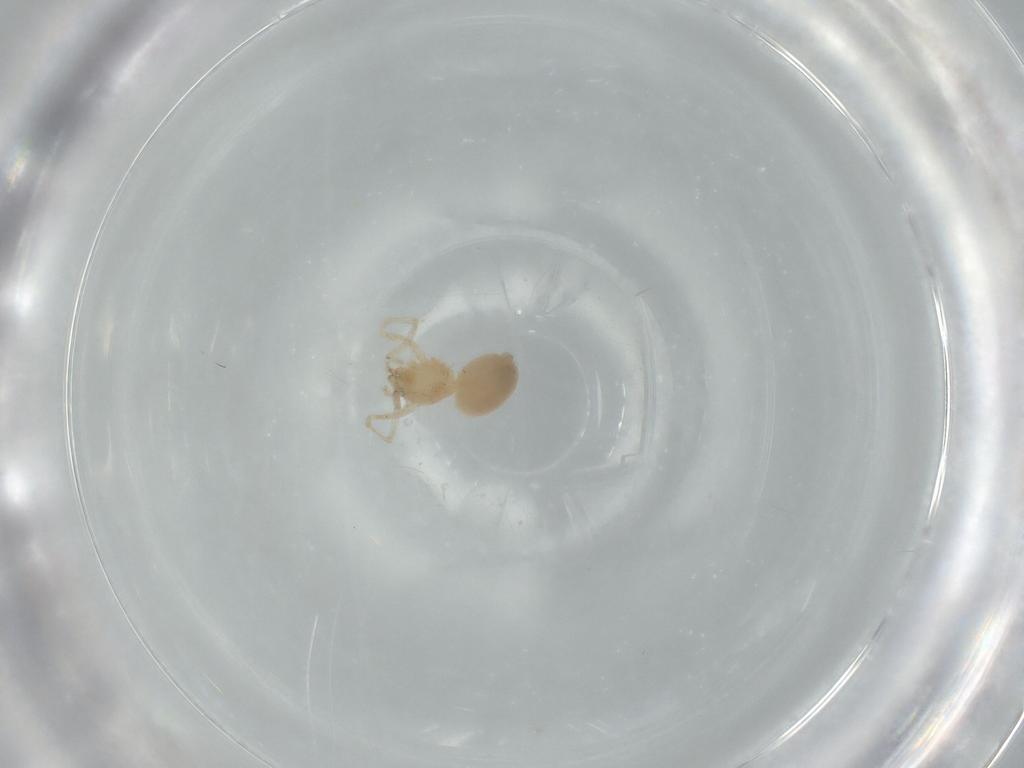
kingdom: Animalia
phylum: Arthropoda
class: Arachnida
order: Araneae
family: Oonopidae
